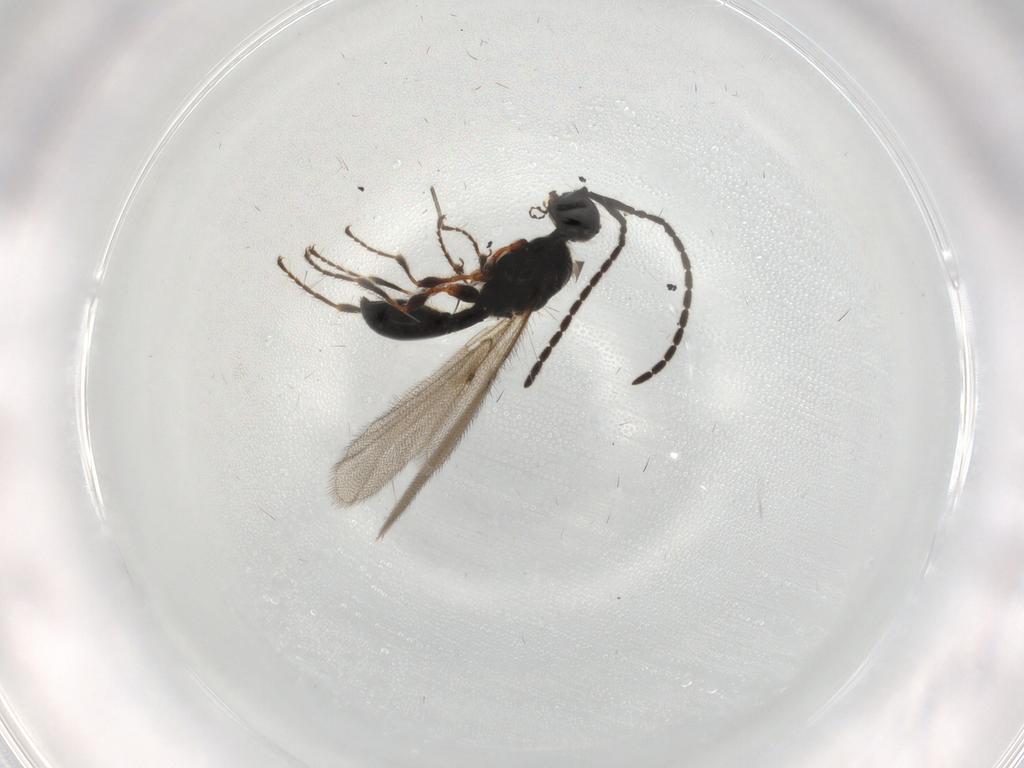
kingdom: Animalia
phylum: Arthropoda
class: Insecta
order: Hymenoptera
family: Diapriidae
